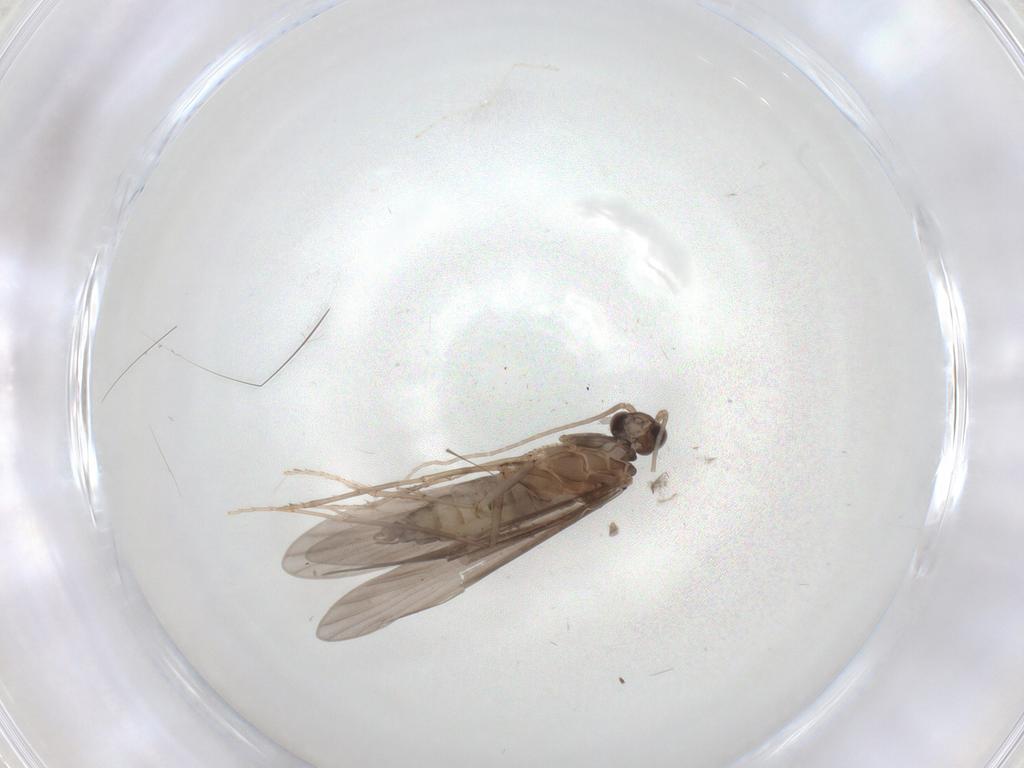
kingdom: Animalia
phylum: Arthropoda
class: Insecta
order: Trichoptera
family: Xiphocentronidae
